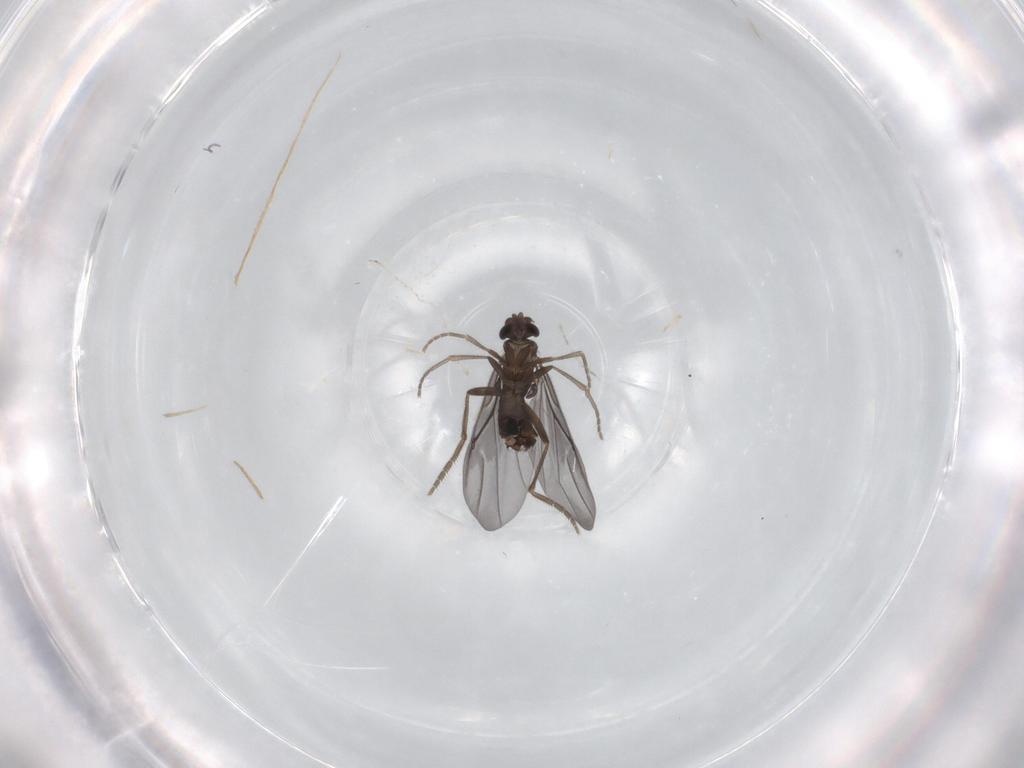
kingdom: Animalia
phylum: Arthropoda
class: Insecta
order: Diptera
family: Phoridae
